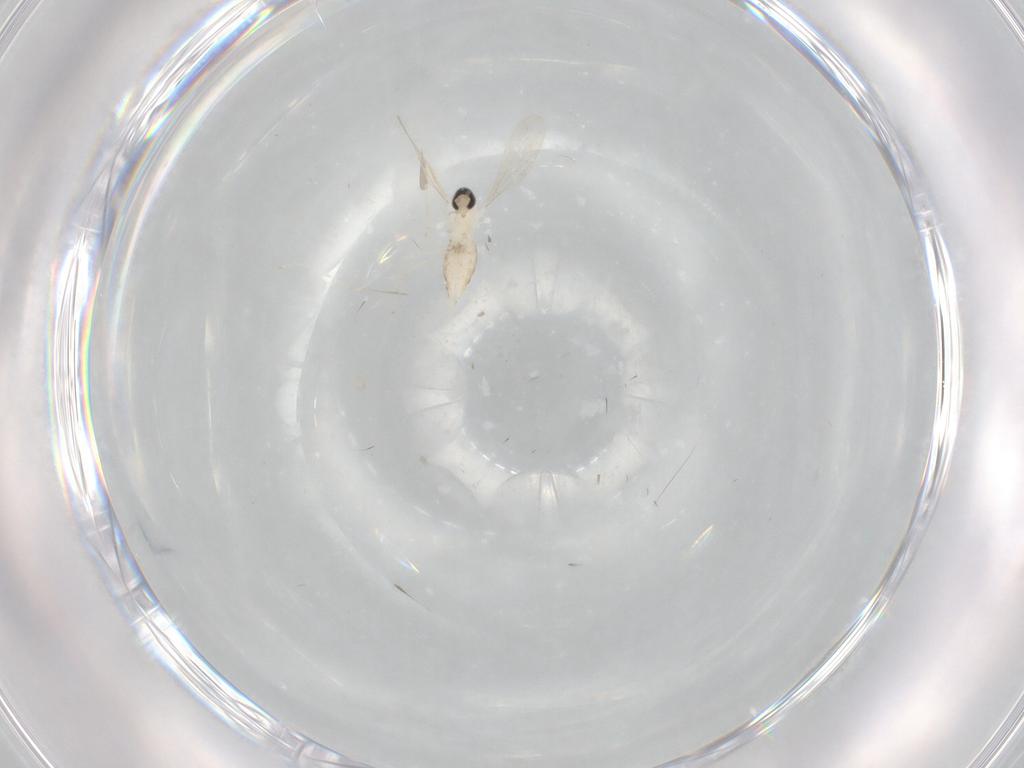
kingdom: Animalia
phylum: Arthropoda
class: Insecta
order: Diptera
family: Cecidomyiidae
